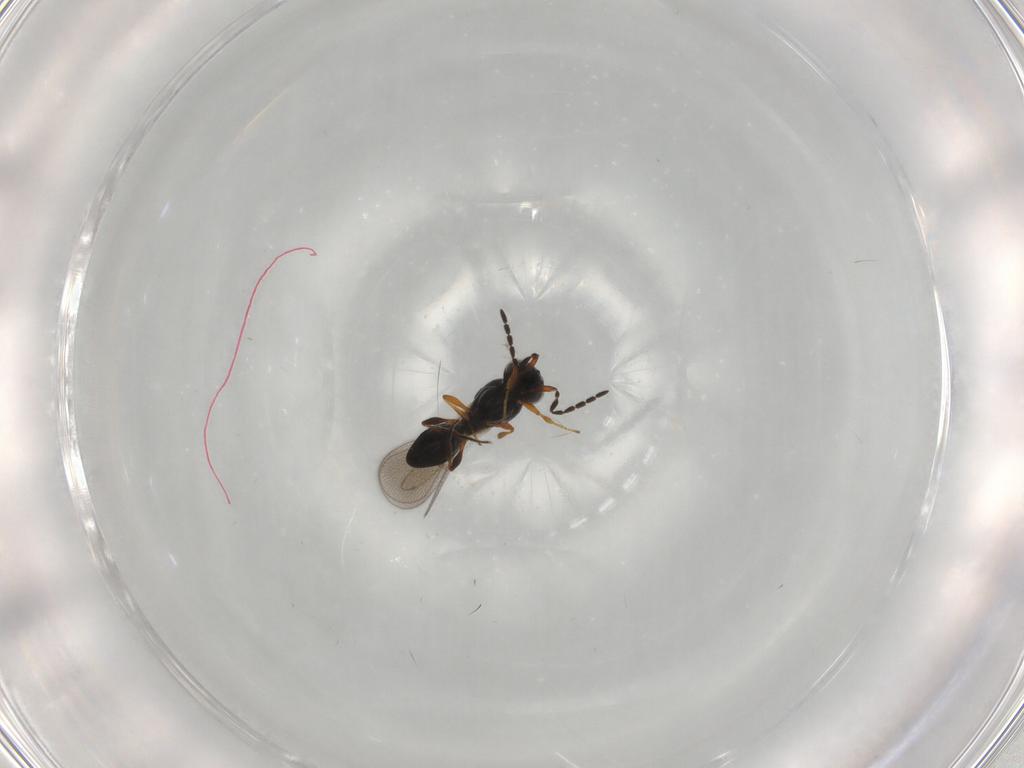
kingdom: Animalia
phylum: Arthropoda
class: Insecta
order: Hymenoptera
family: Platygastridae
